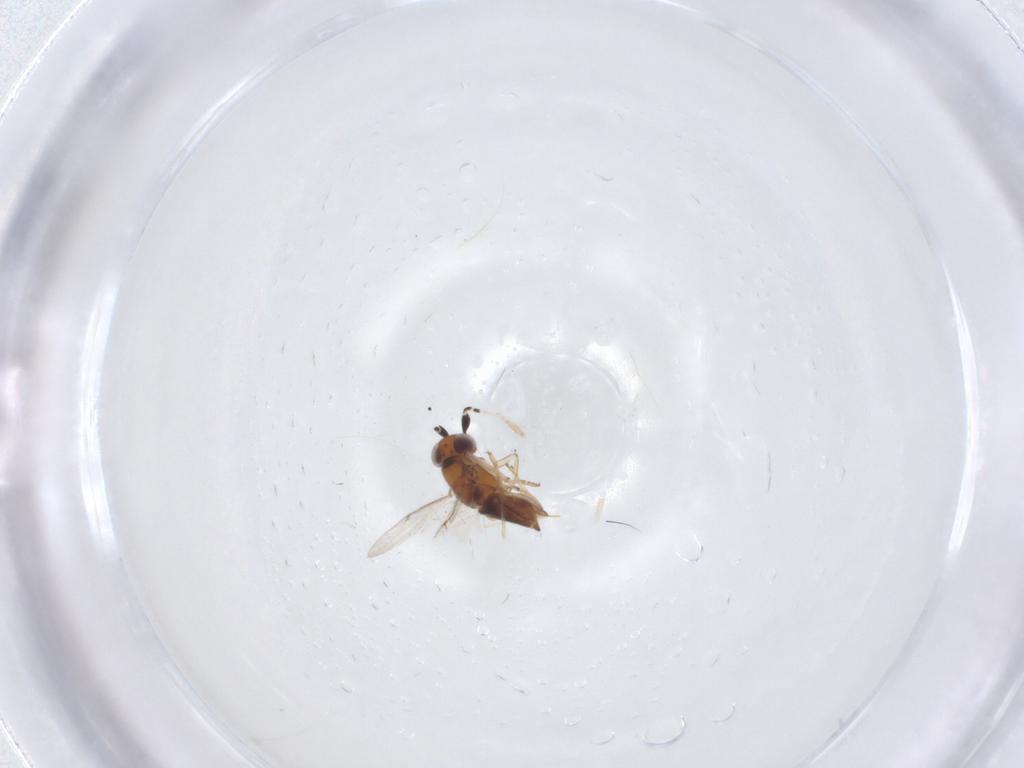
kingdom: Animalia
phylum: Arthropoda
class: Insecta
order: Hymenoptera
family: Encyrtidae
